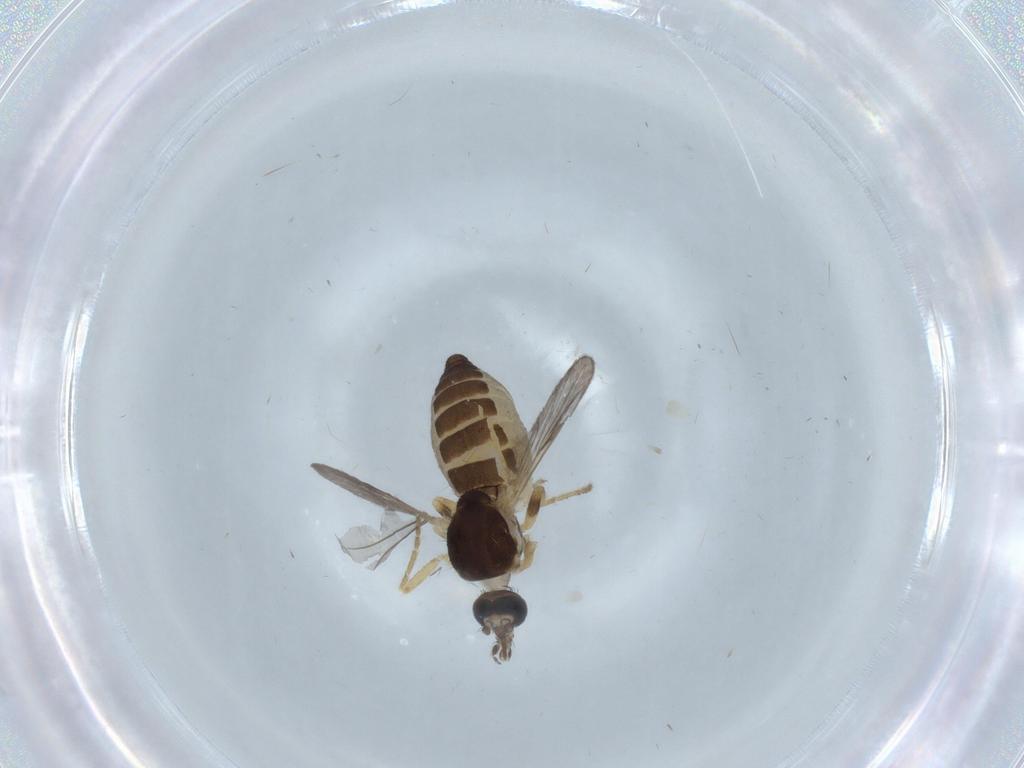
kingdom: Animalia
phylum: Arthropoda
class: Insecta
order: Diptera
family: Ceratopogonidae
